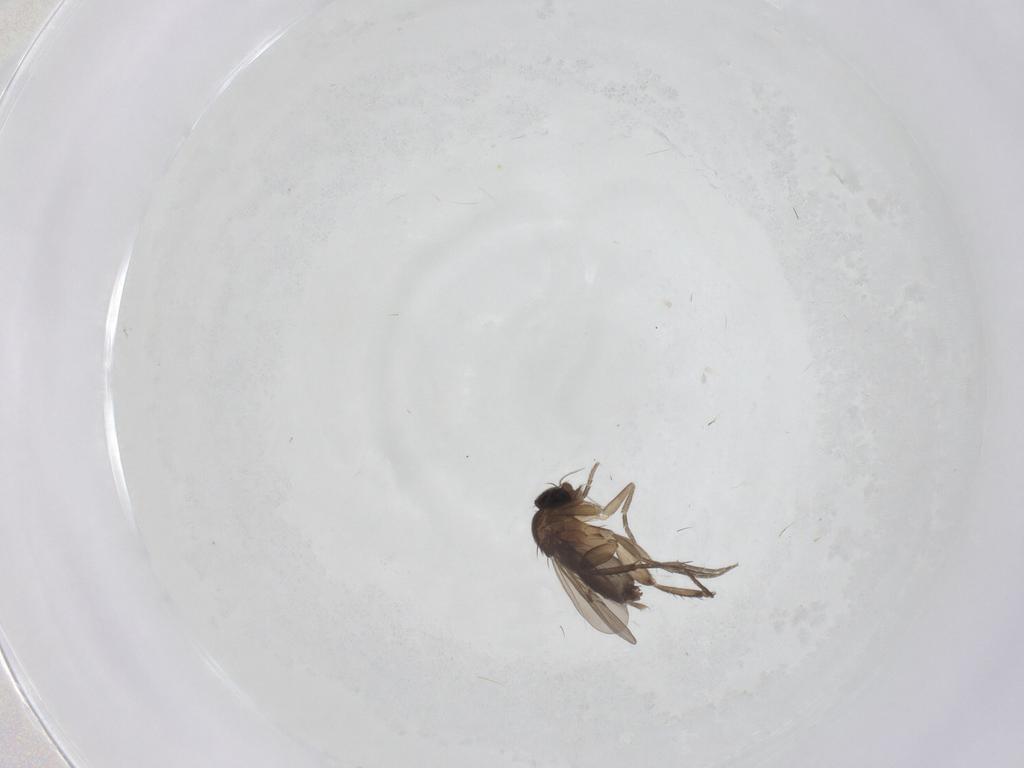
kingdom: Animalia
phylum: Arthropoda
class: Insecta
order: Diptera
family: Phoridae
